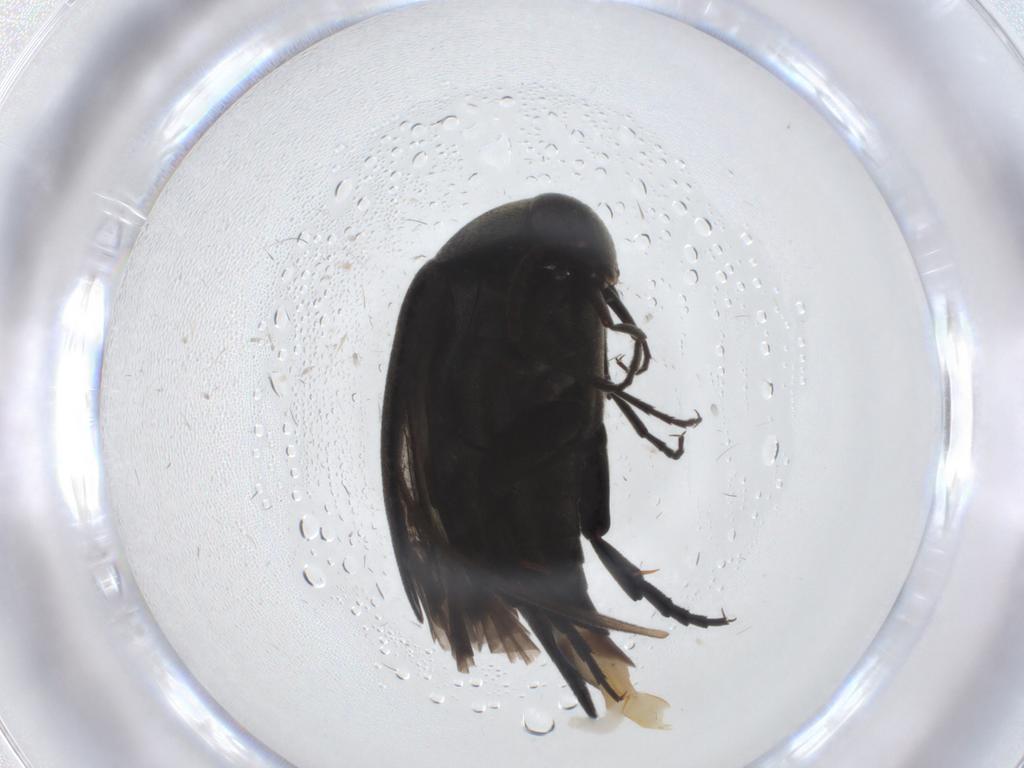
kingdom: Animalia
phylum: Arthropoda
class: Insecta
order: Coleoptera
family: Mordellidae
